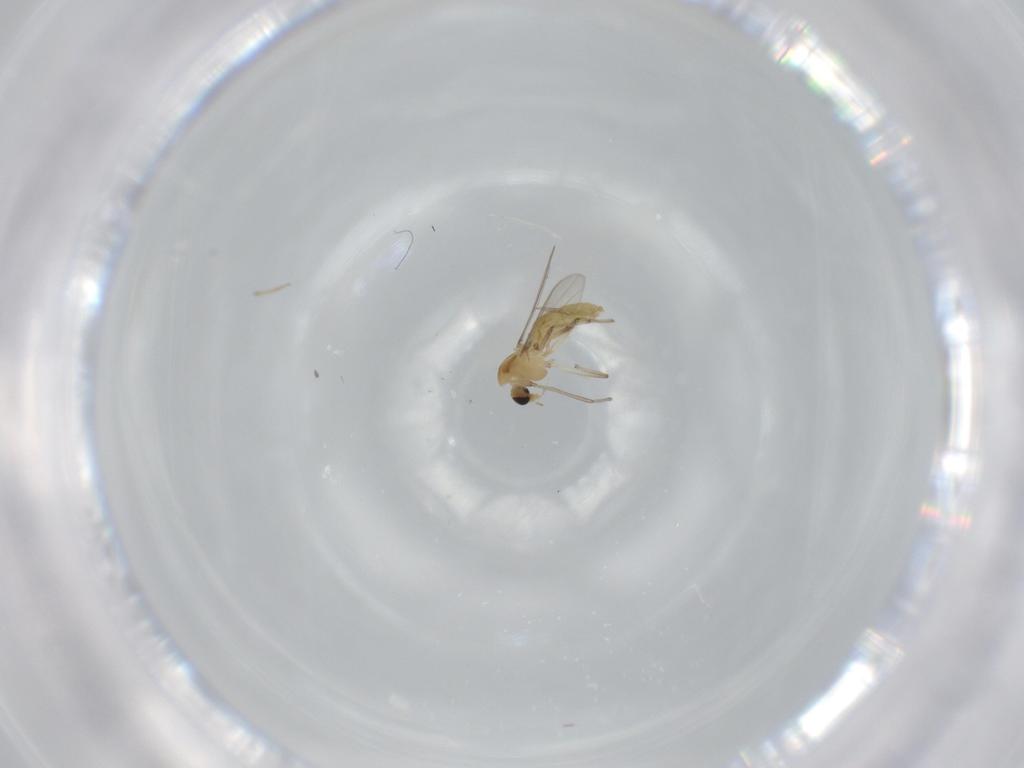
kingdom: Animalia
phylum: Arthropoda
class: Insecta
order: Diptera
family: Chironomidae
